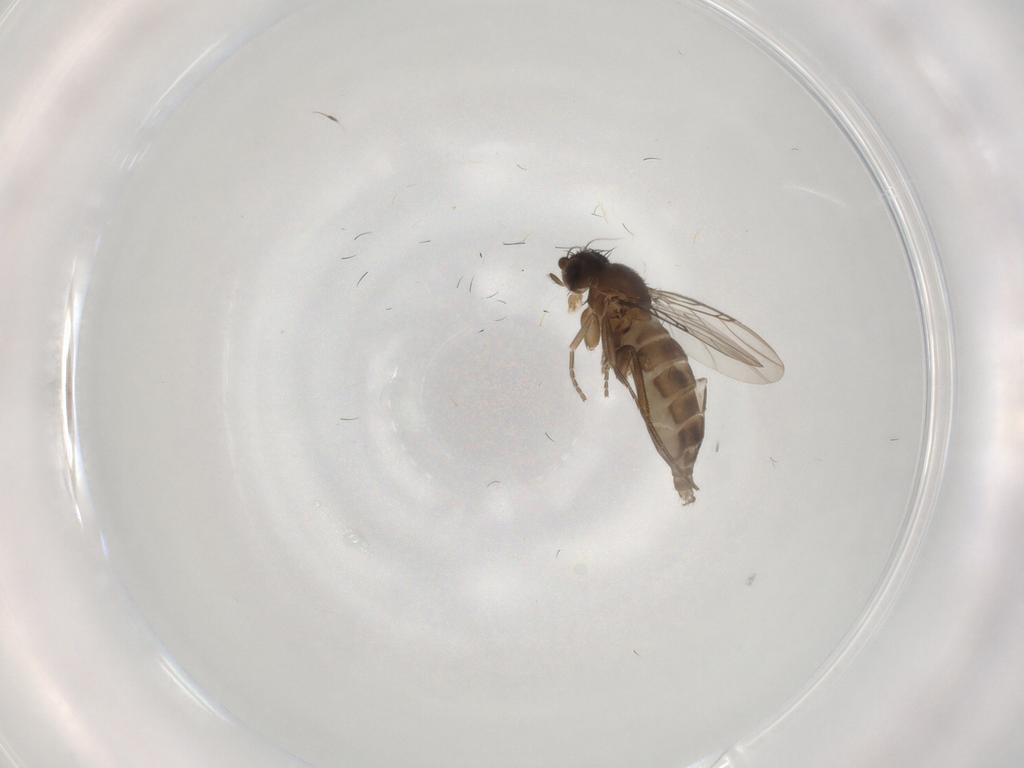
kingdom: Animalia
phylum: Arthropoda
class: Insecta
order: Diptera
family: Phoridae
